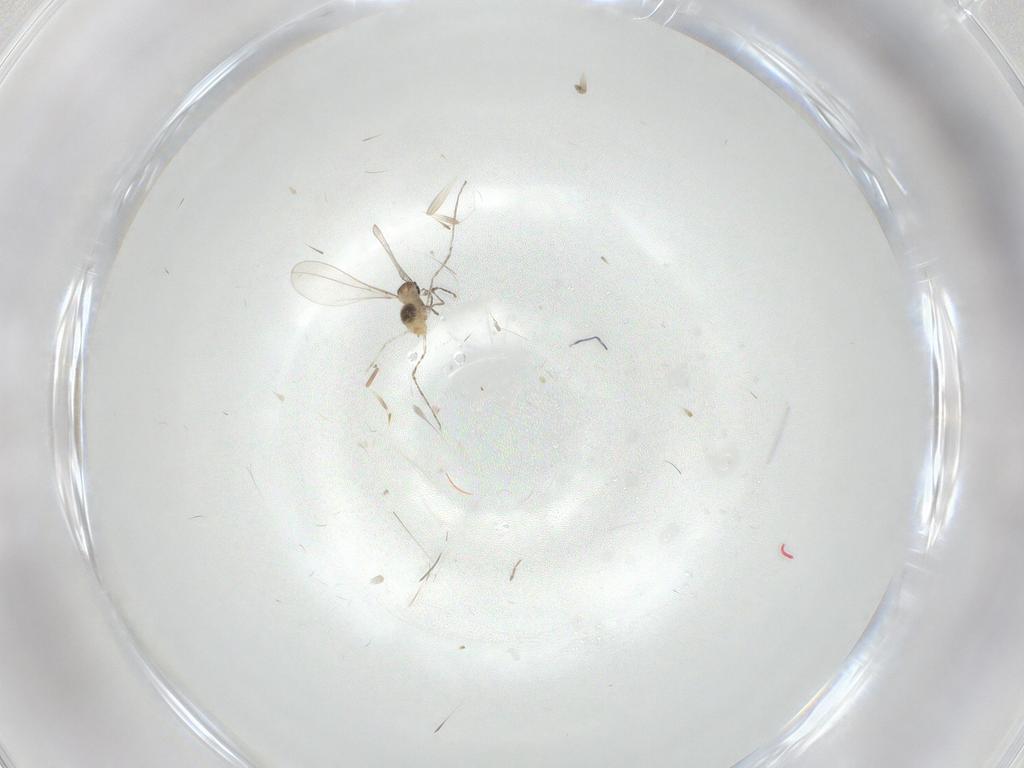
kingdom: Animalia
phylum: Arthropoda
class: Insecta
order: Diptera
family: Cecidomyiidae
